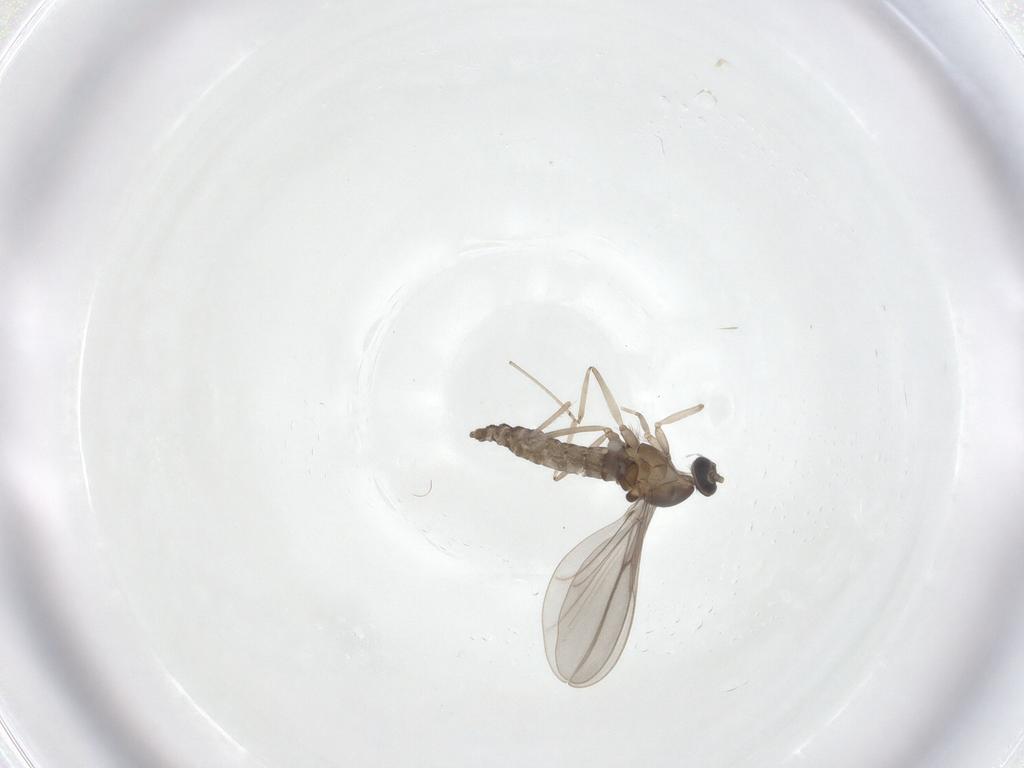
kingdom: Animalia
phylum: Arthropoda
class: Insecta
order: Diptera
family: Cecidomyiidae
